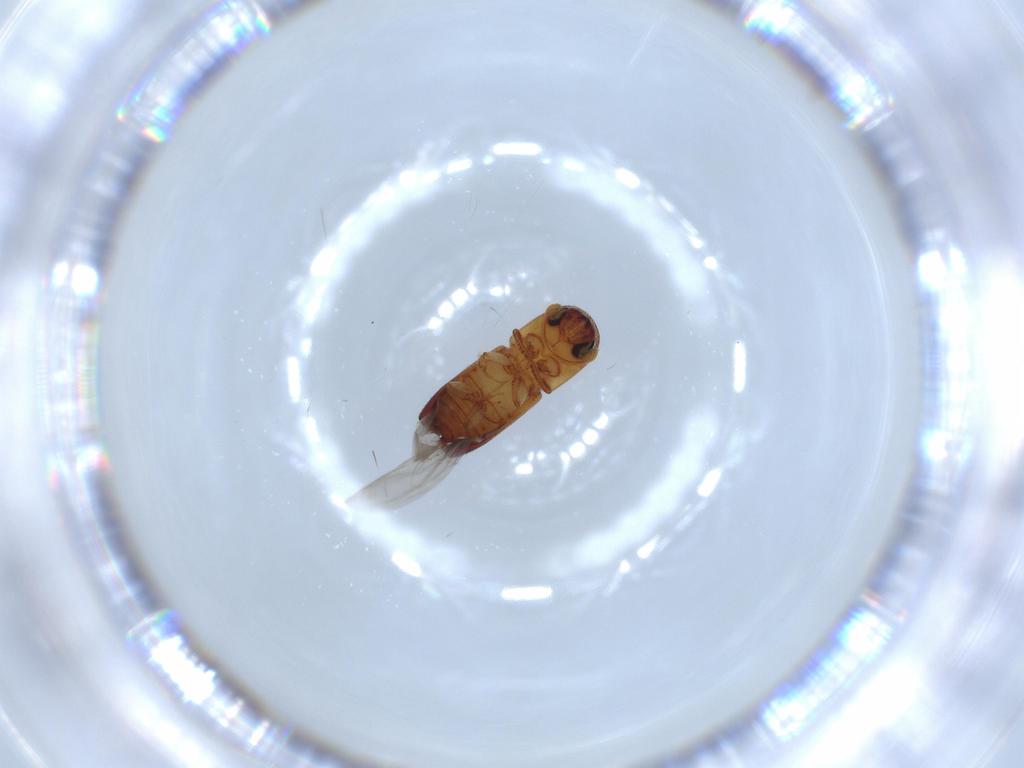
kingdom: Animalia
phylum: Arthropoda
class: Insecta
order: Coleoptera
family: Curculionidae
